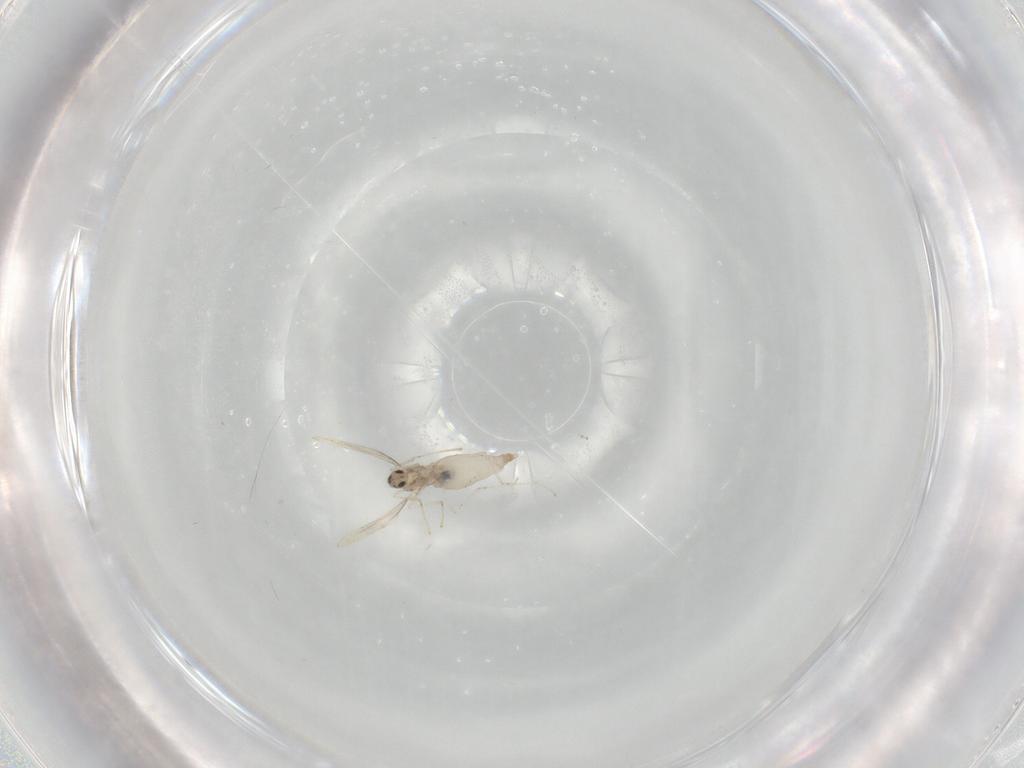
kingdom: Animalia
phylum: Arthropoda
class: Insecta
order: Diptera
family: Cecidomyiidae
